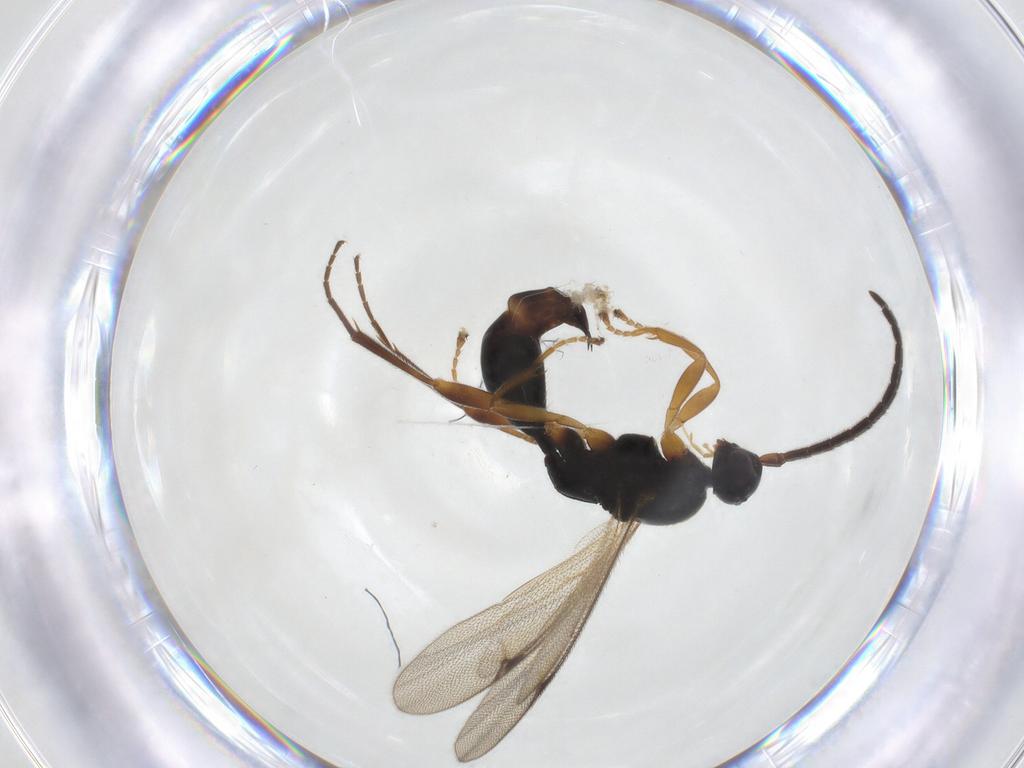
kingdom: Animalia
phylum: Arthropoda
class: Insecta
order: Hymenoptera
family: Proctotrupidae
